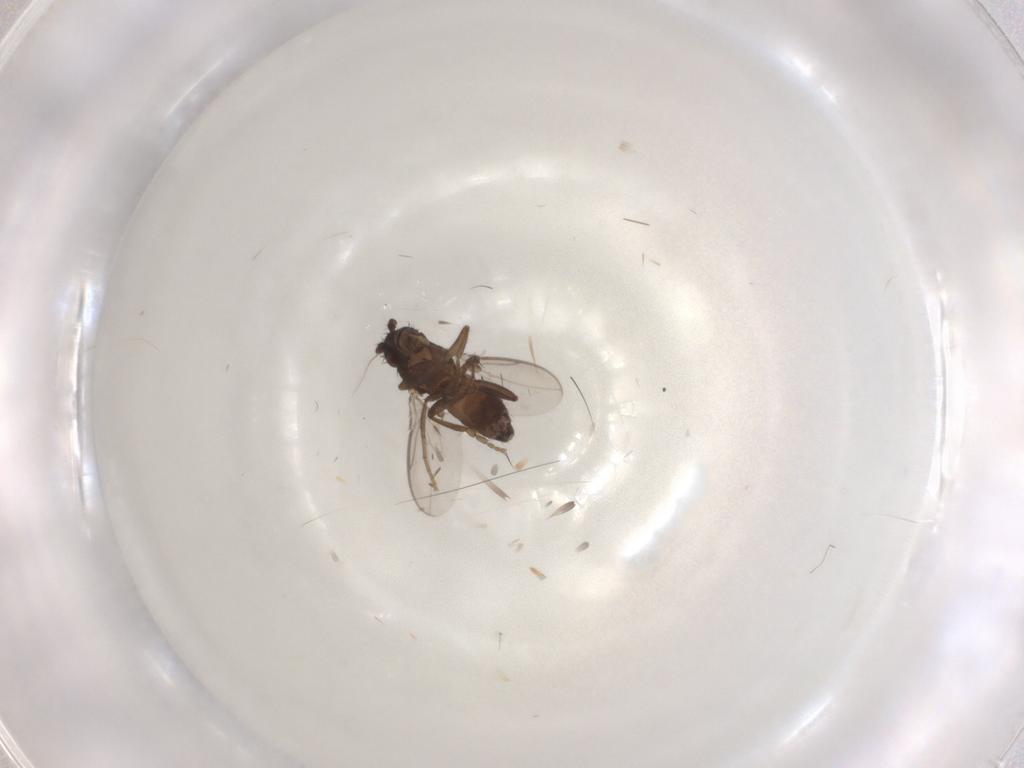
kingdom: Animalia
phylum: Arthropoda
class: Insecta
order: Diptera
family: Sphaeroceridae
